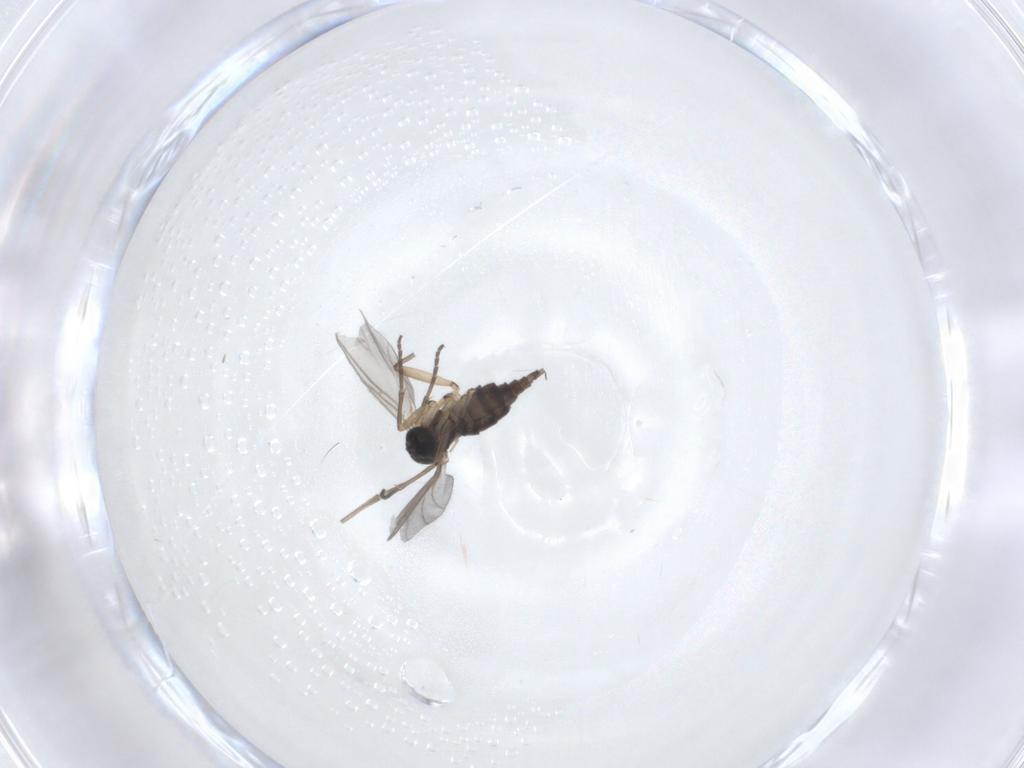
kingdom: Animalia
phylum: Arthropoda
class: Insecta
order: Diptera
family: Sciaridae
